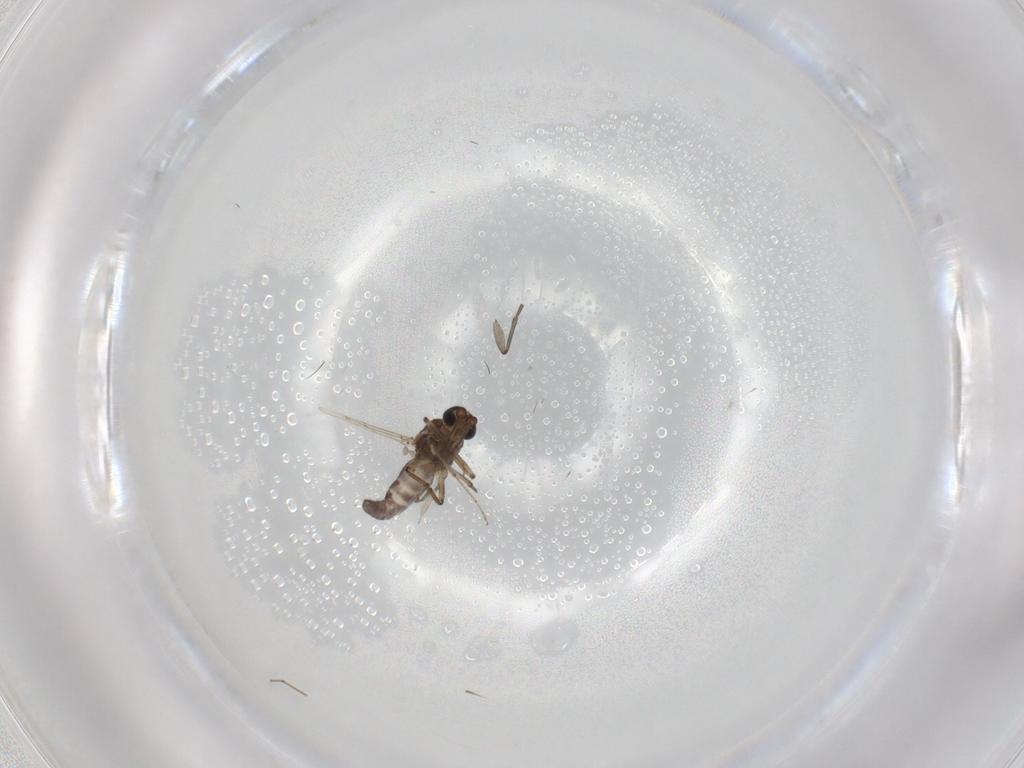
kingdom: Animalia
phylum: Arthropoda
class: Insecta
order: Diptera
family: Ceratopogonidae
